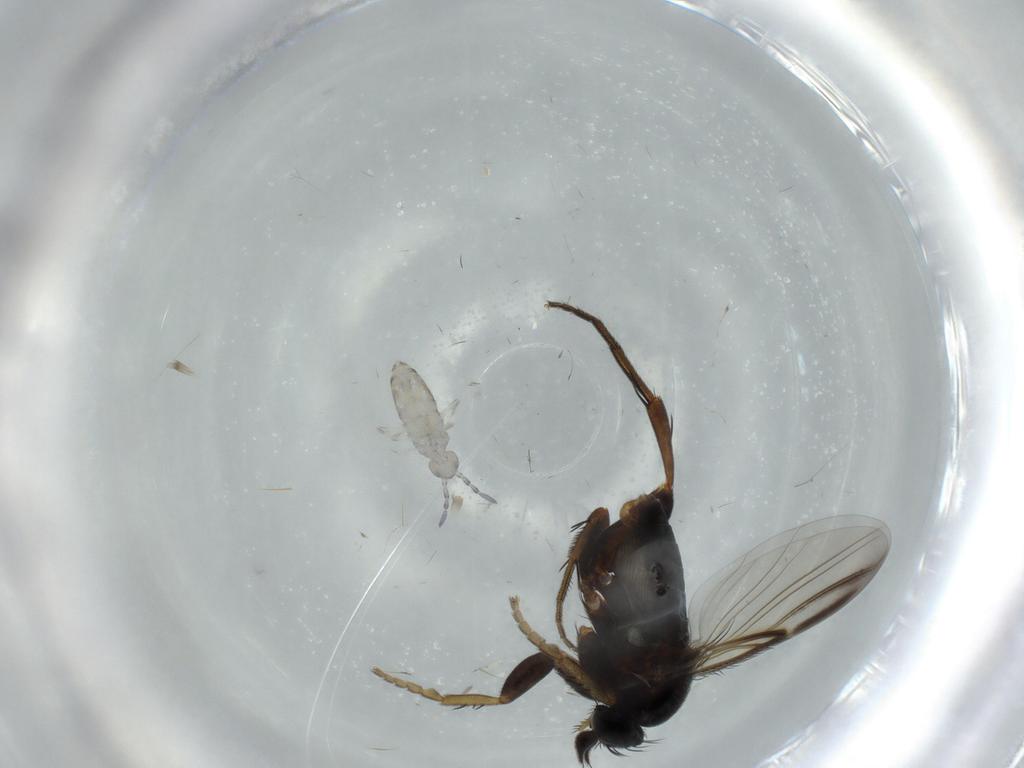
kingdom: Animalia
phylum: Arthropoda
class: Insecta
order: Diptera
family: Phoridae
